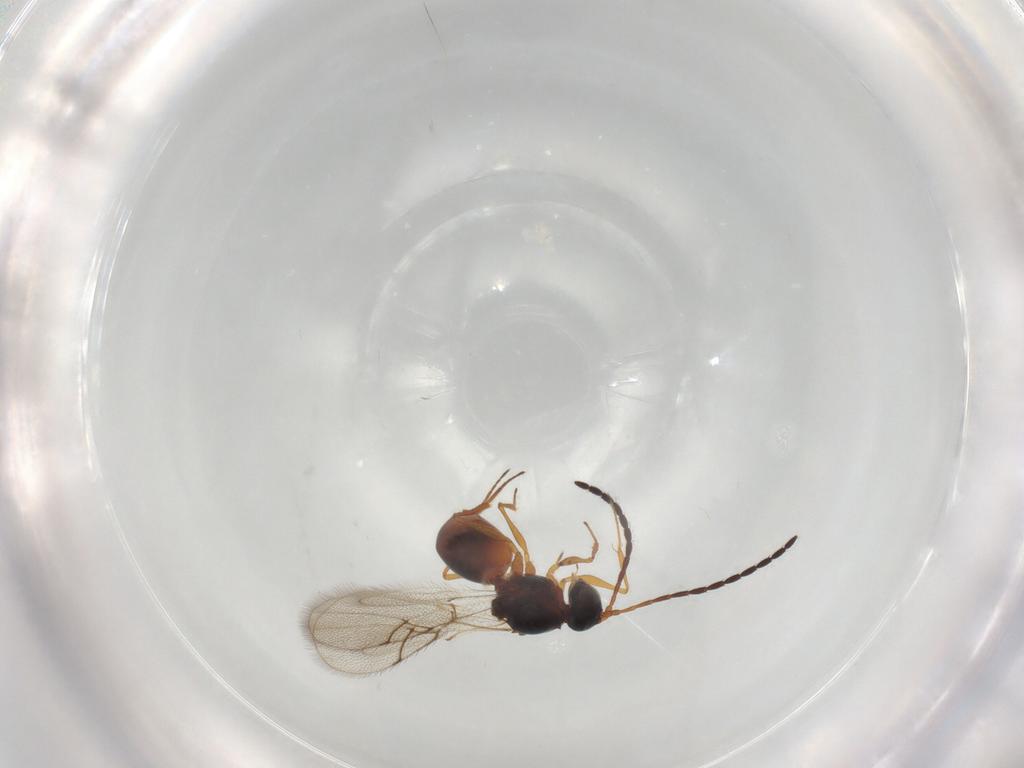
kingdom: Animalia
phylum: Arthropoda
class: Insecta
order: Hymenoptera
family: Figitidae
